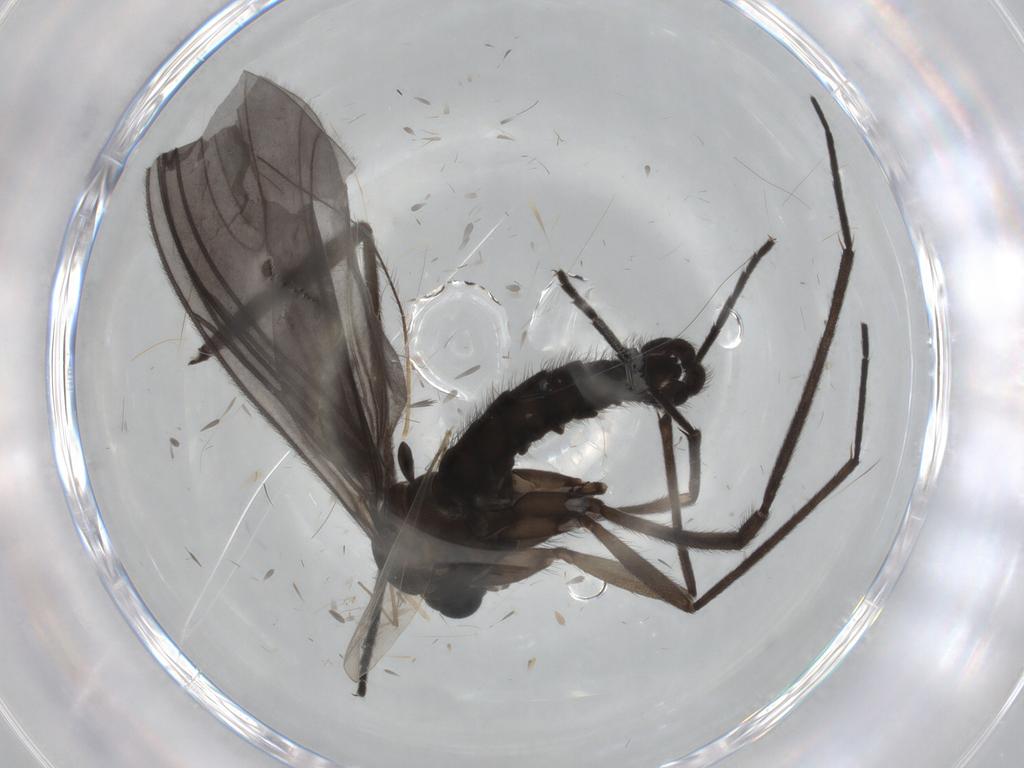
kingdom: Animalia
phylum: Arthropoda
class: Insecta
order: Diptera
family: Sciaridae
